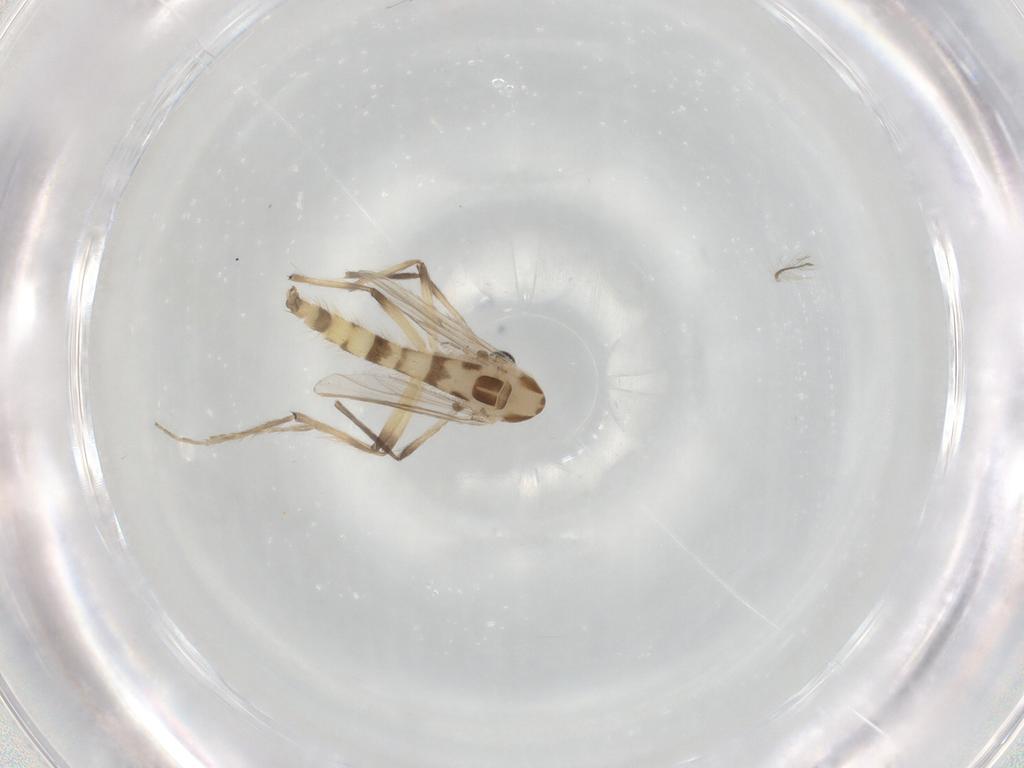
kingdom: Animalia
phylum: Arthropoda
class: Insecta
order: Diptera
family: Chironomidae
